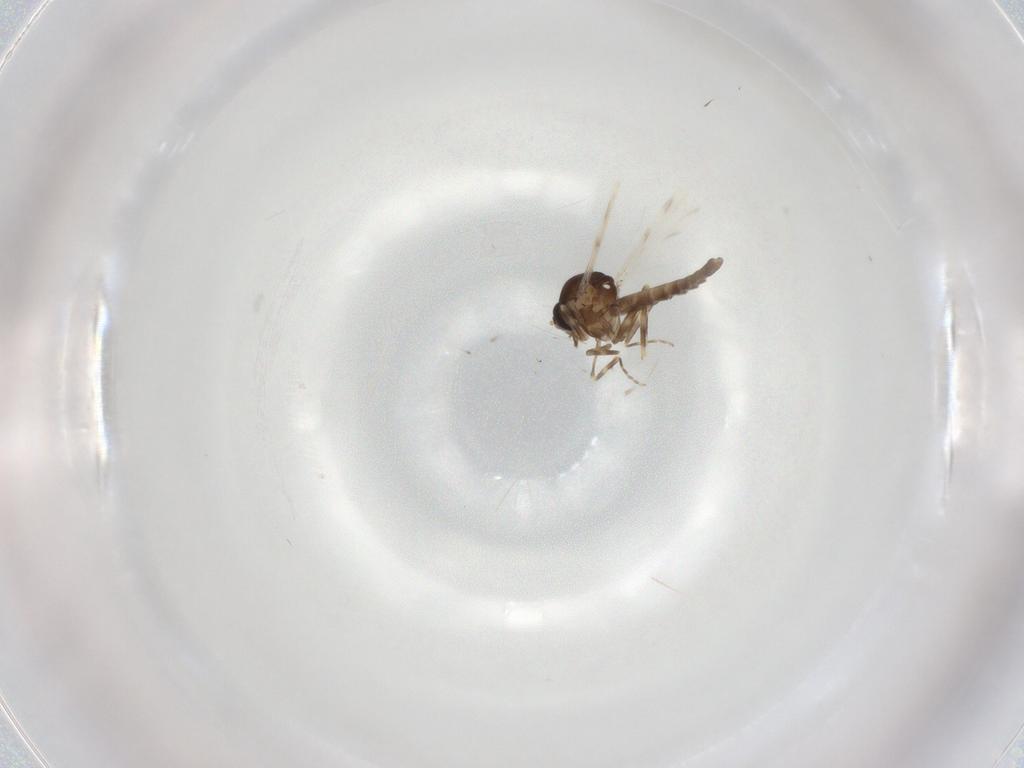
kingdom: Animalia
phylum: Arthropoda
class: Insecta
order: Diptera
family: Ceratopogonidae
